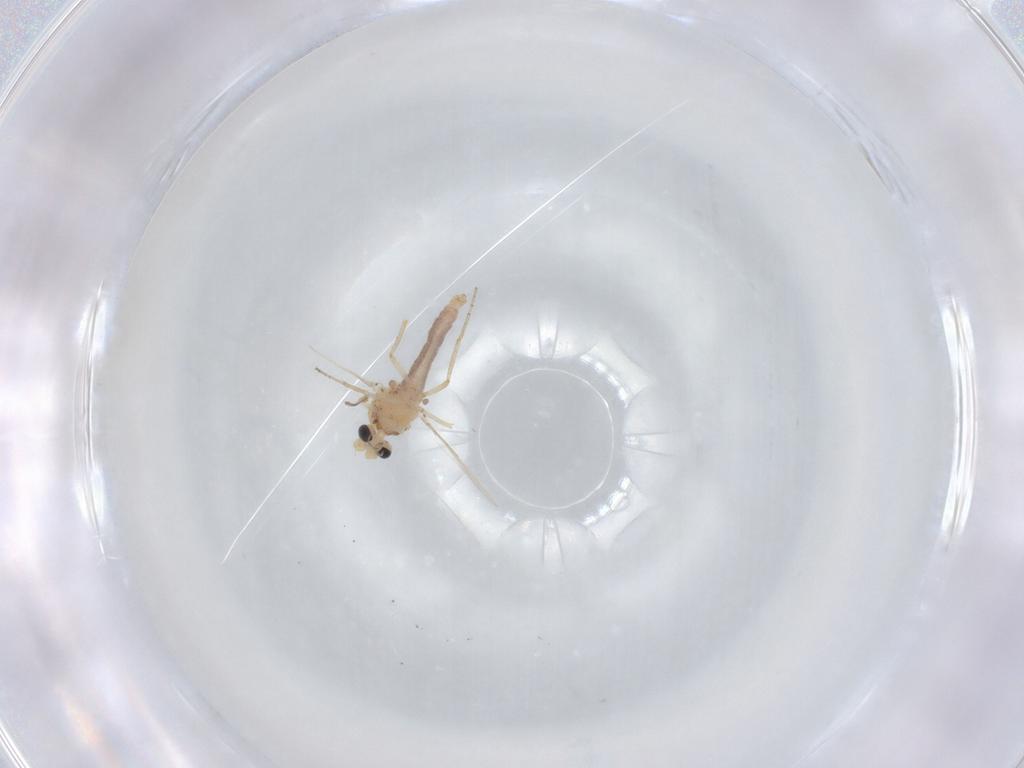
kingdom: Animalia
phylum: Arthropoda
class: Insecta
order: Diptera
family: Ceratopogonidae
